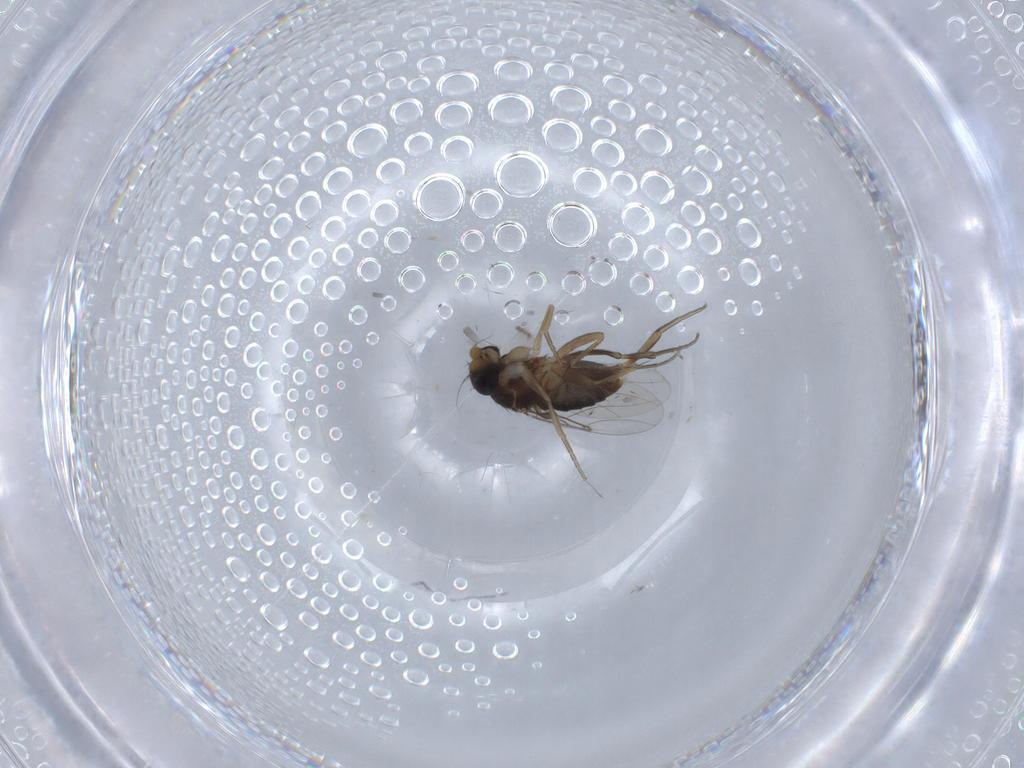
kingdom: Animalia
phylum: Arthropoda
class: Insecta
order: Diptera
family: Phoridae
